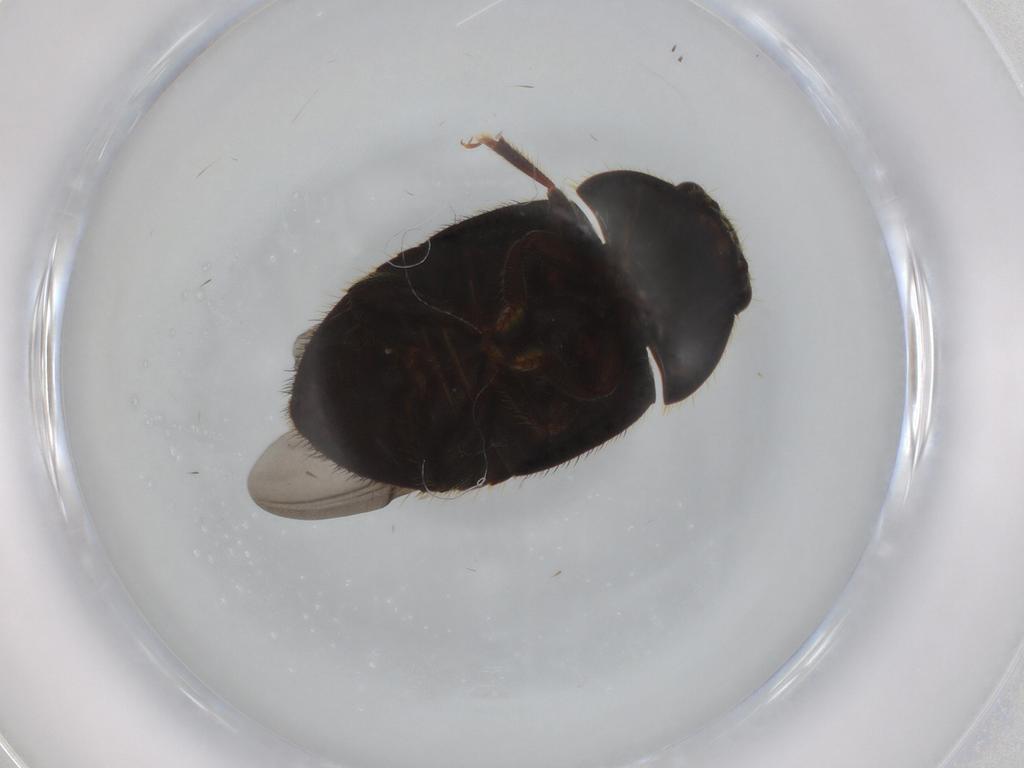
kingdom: Animalia
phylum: Arthropoda
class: Insecta
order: Coleoptera
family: Nitidulidae
